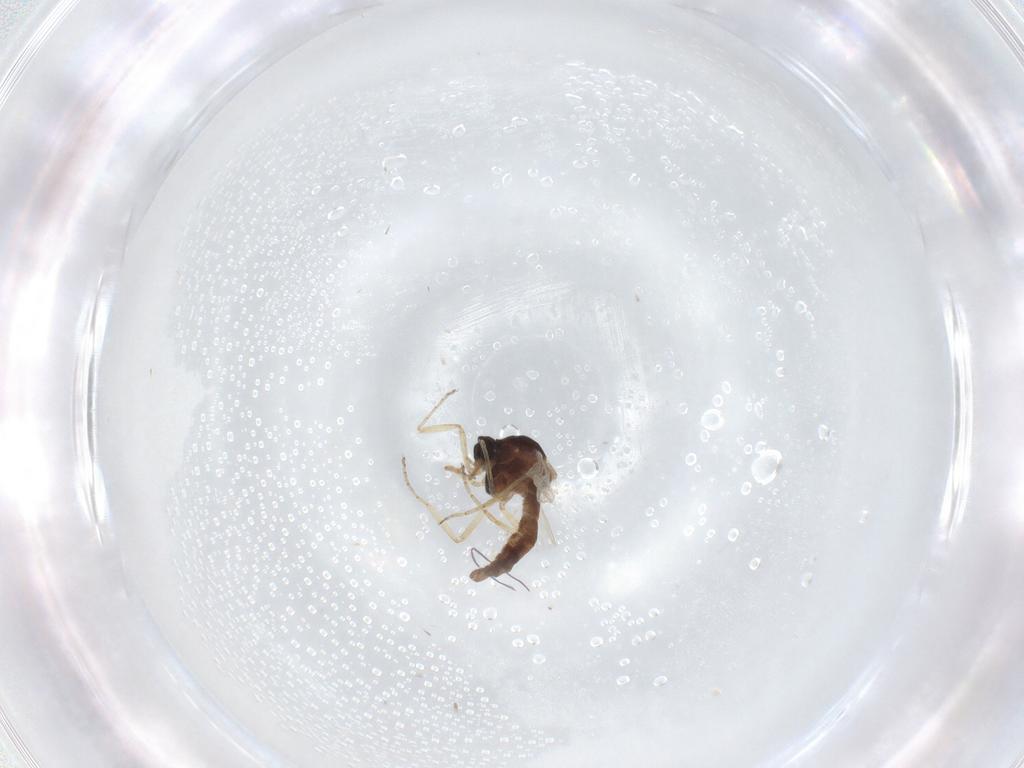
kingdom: Animalia
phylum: Arthropoda
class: Insecta
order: Diptera
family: Ceratopogonidae
